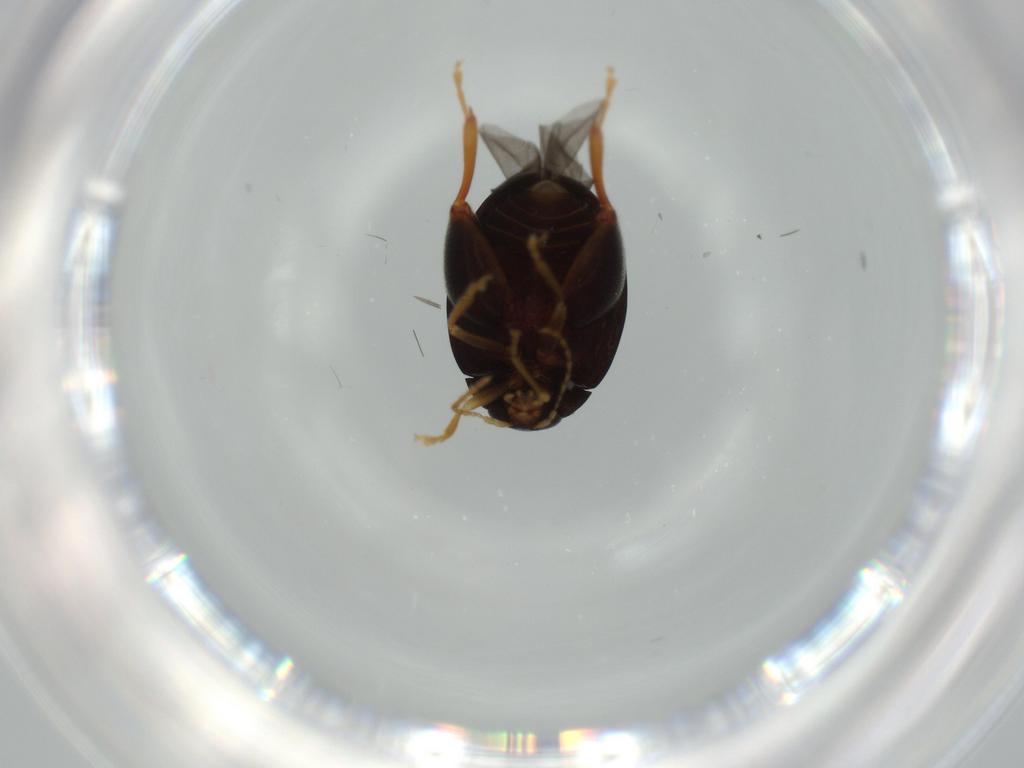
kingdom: Animalia
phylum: Arthropoda
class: Insecta
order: Coleoptera
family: Chrysomelidae
